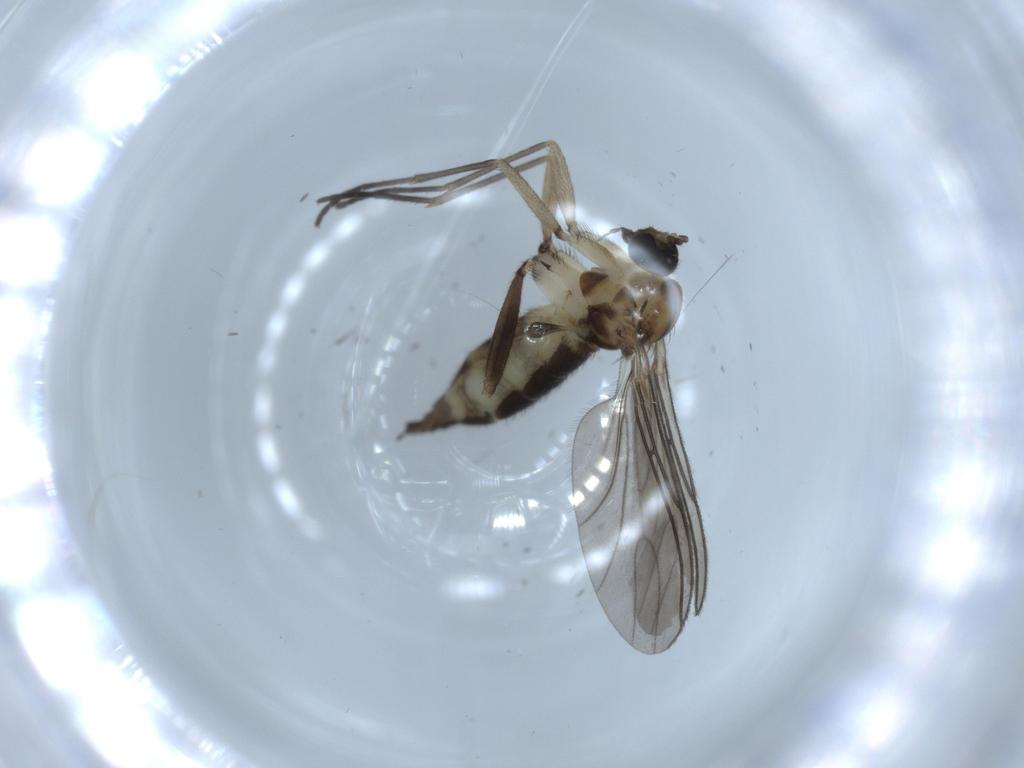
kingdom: Animalia
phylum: Arthropoda
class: Insecta
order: Diptera
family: Sciaridae
